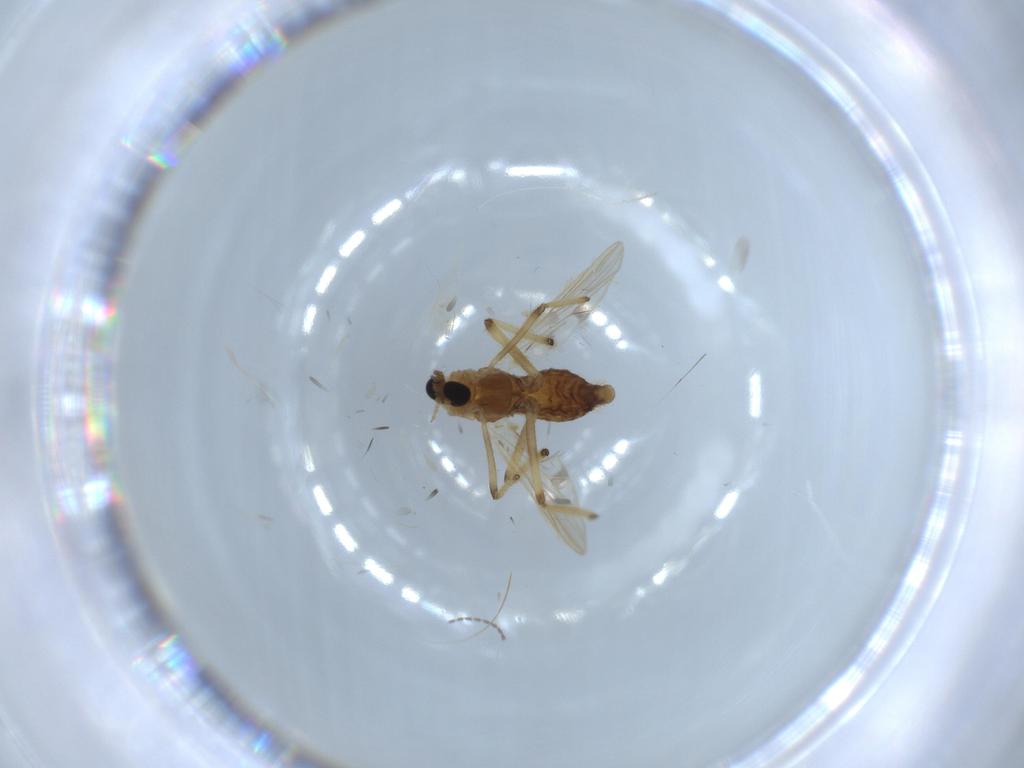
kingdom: Animalia
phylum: Arthropoda
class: Insecta
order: Diptera
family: Chironomidae
